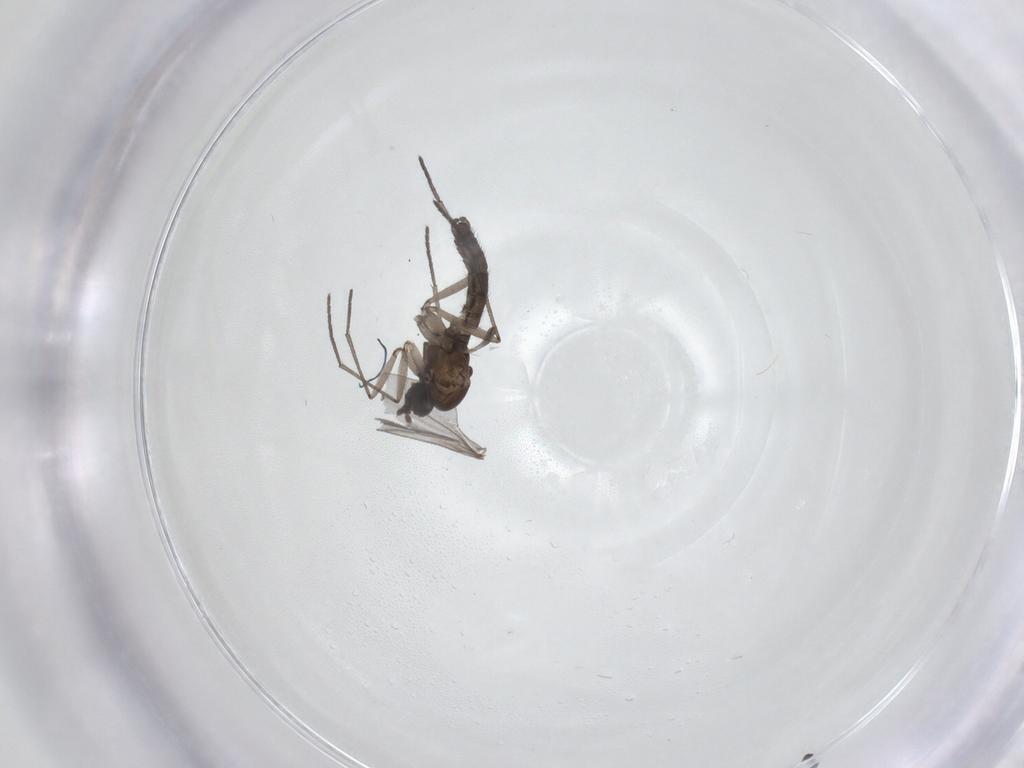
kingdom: Animalia
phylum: Arthropoda
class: Insecta
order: Diptera
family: Sciaridae
